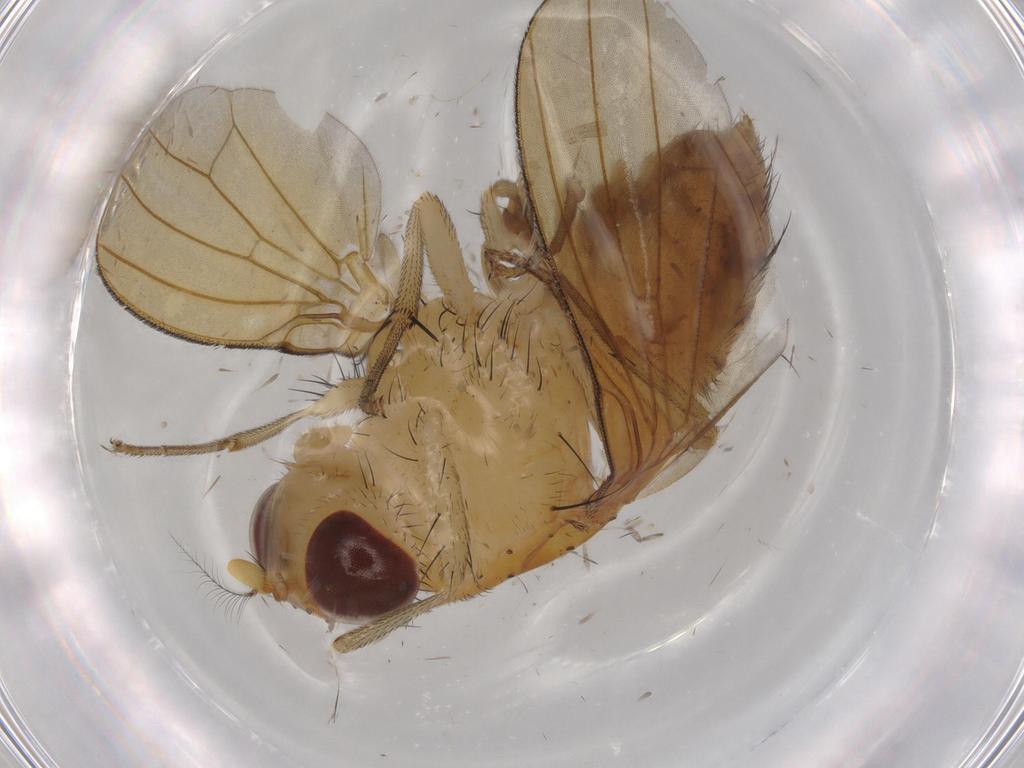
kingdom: Animalia
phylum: Arthropoda
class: Insecta
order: Diptera
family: Sciaridae
